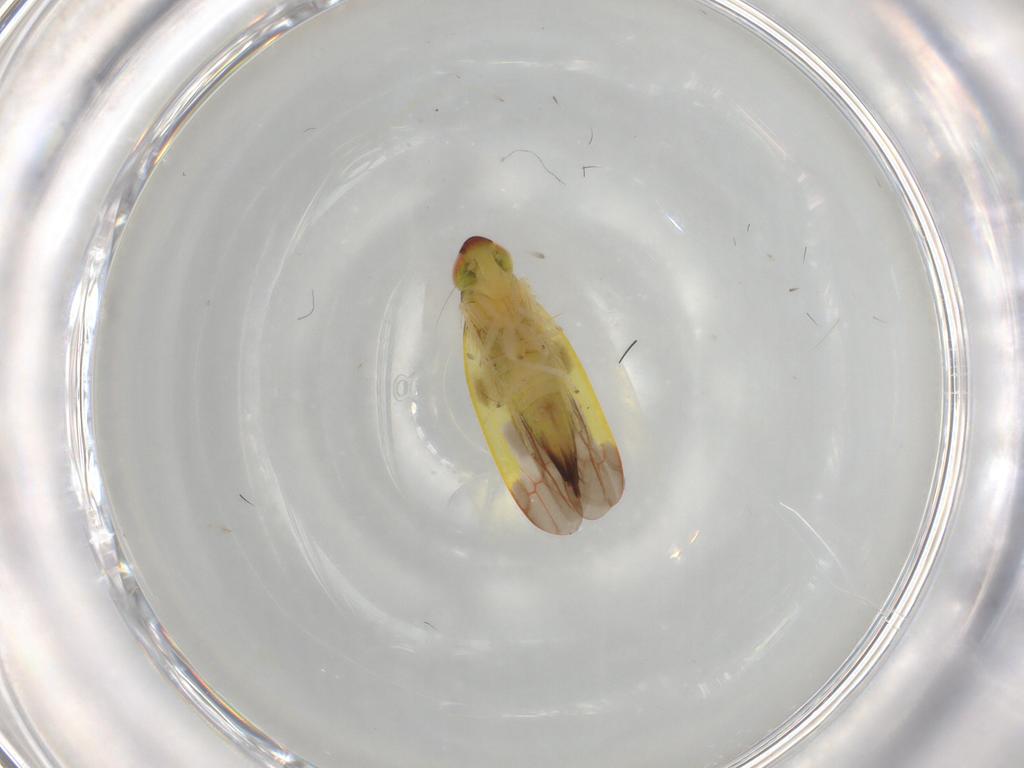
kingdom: Animalia
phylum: Arthropoda
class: Insecta
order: Hemiptera
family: Cicadellidae
